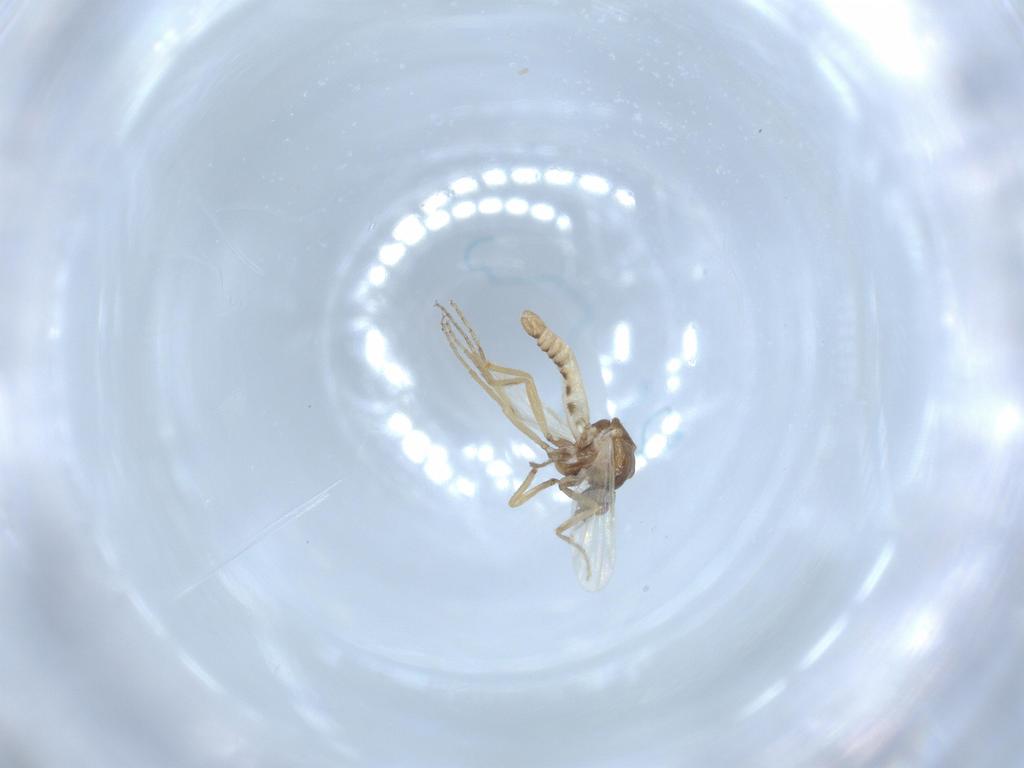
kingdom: Animalia
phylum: Arthropoda
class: Insecta
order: Diptera
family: Ceratopogonidae
